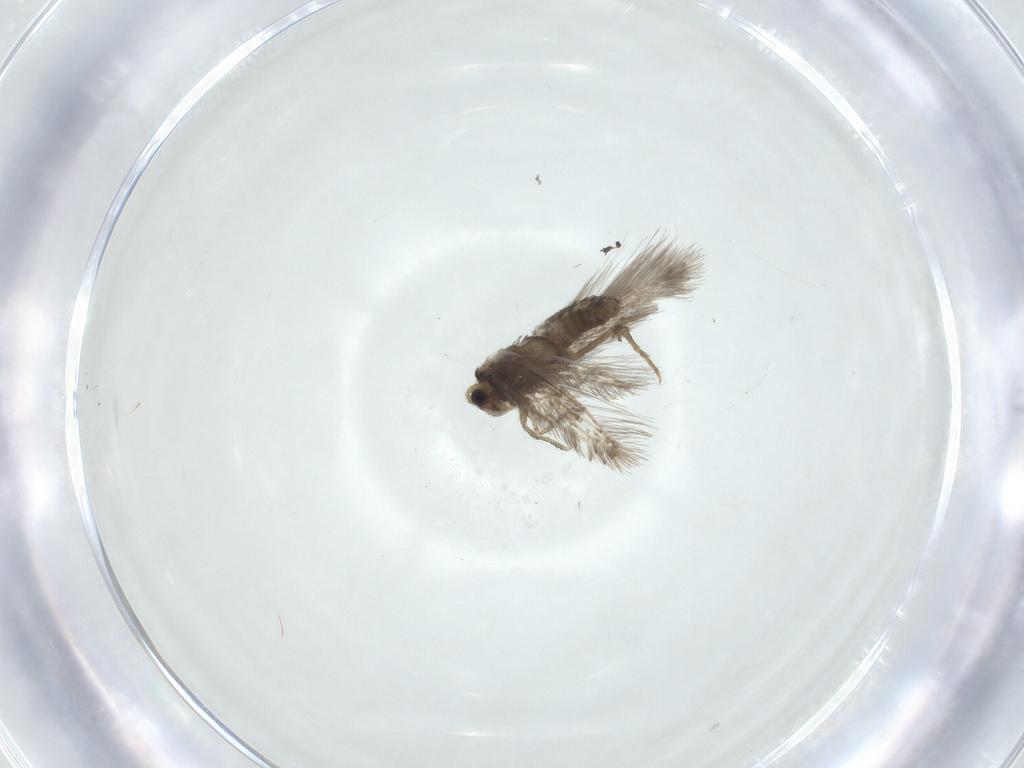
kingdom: Animalia
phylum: Arthropoda
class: Insecta
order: Lepidoptera
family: Nepticulidae
